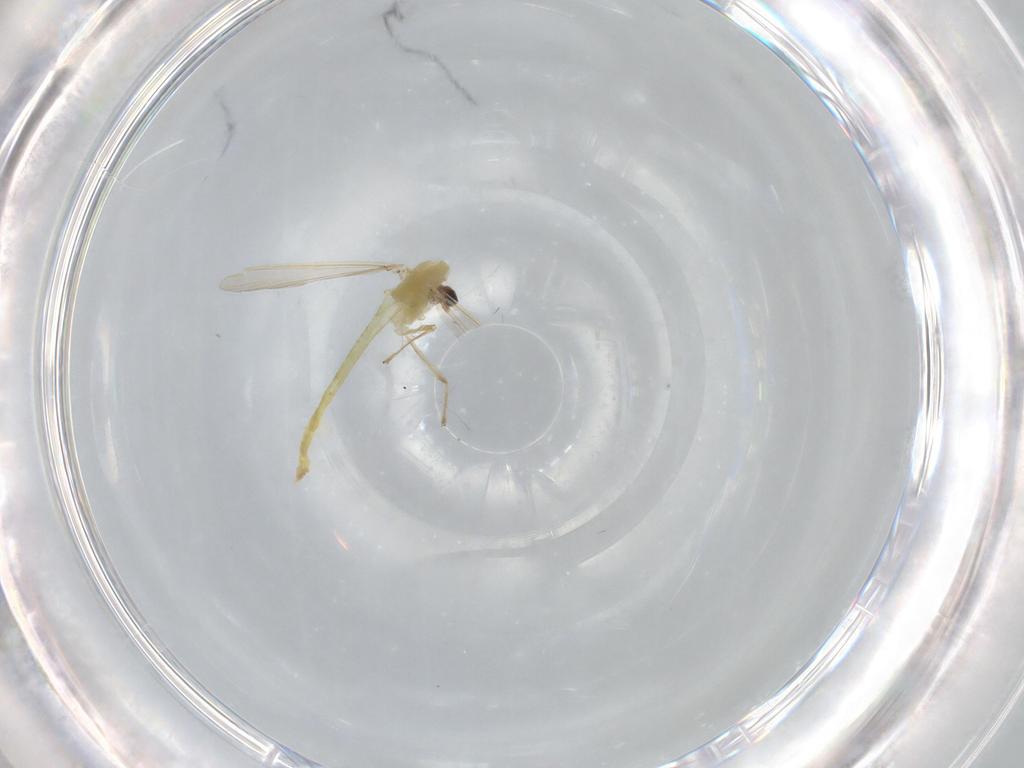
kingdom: Animalia
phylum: Arthropoda
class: Insecta
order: Diptera
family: Chironomidae
